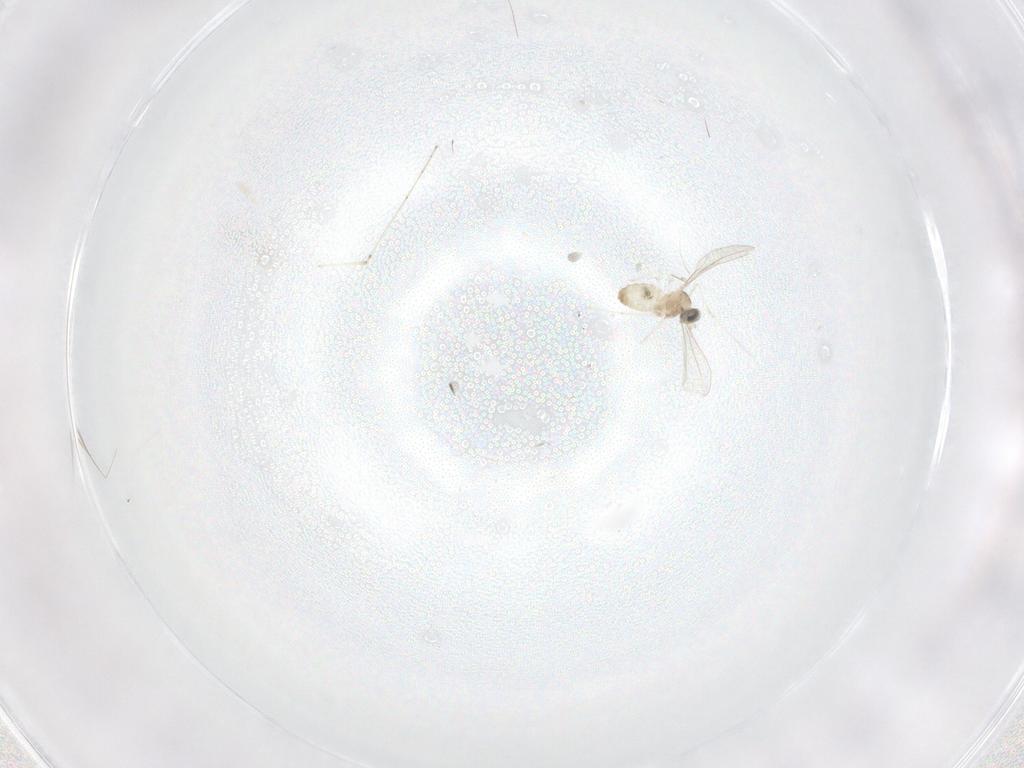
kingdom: Animalia
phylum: Arthropoda
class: Insecta
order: Diptera
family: Cecidomyiidae
